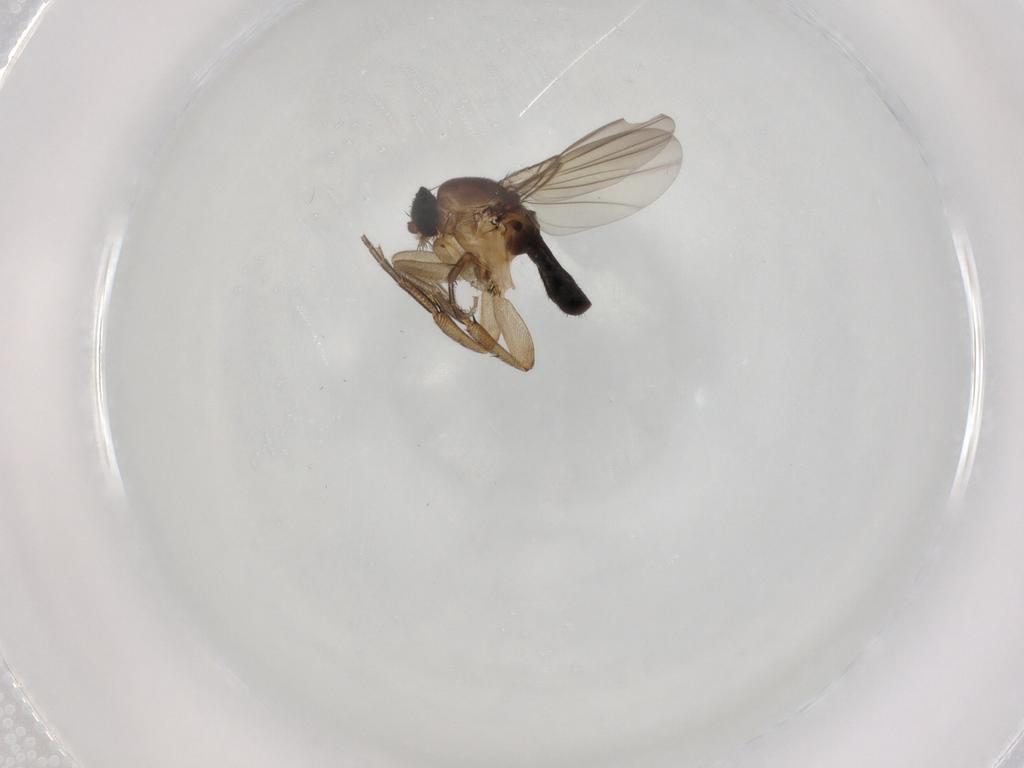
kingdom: Animalia
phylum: Arthropoda
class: Insecta
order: Diptera
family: Phoridae
